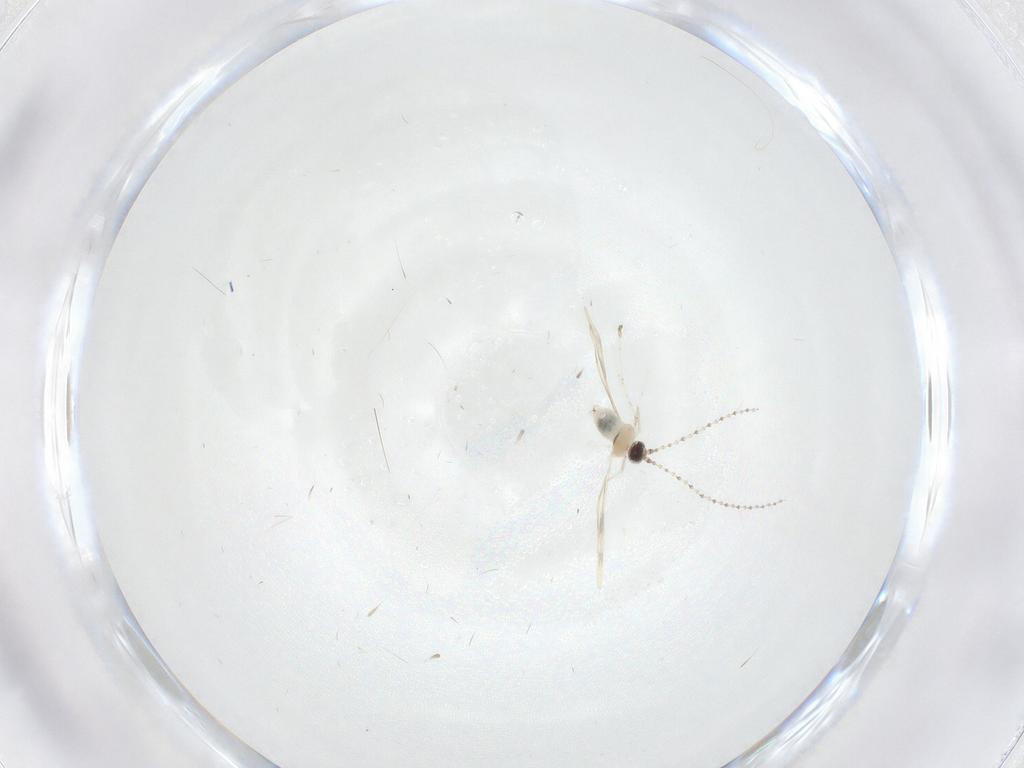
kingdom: Animalia
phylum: Arthropoda
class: Insecta
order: Diptera
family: Cecidomyiidae
